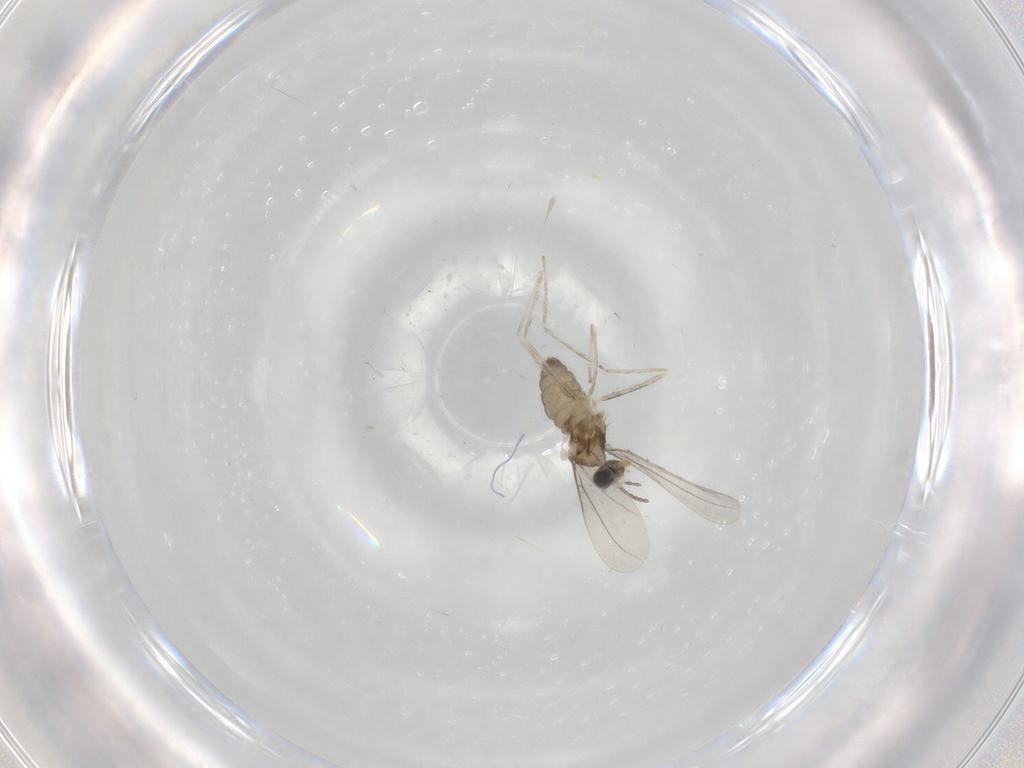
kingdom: Animalia
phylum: Arthropoda
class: Insecta
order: Diptera
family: Cecidomyiidae
